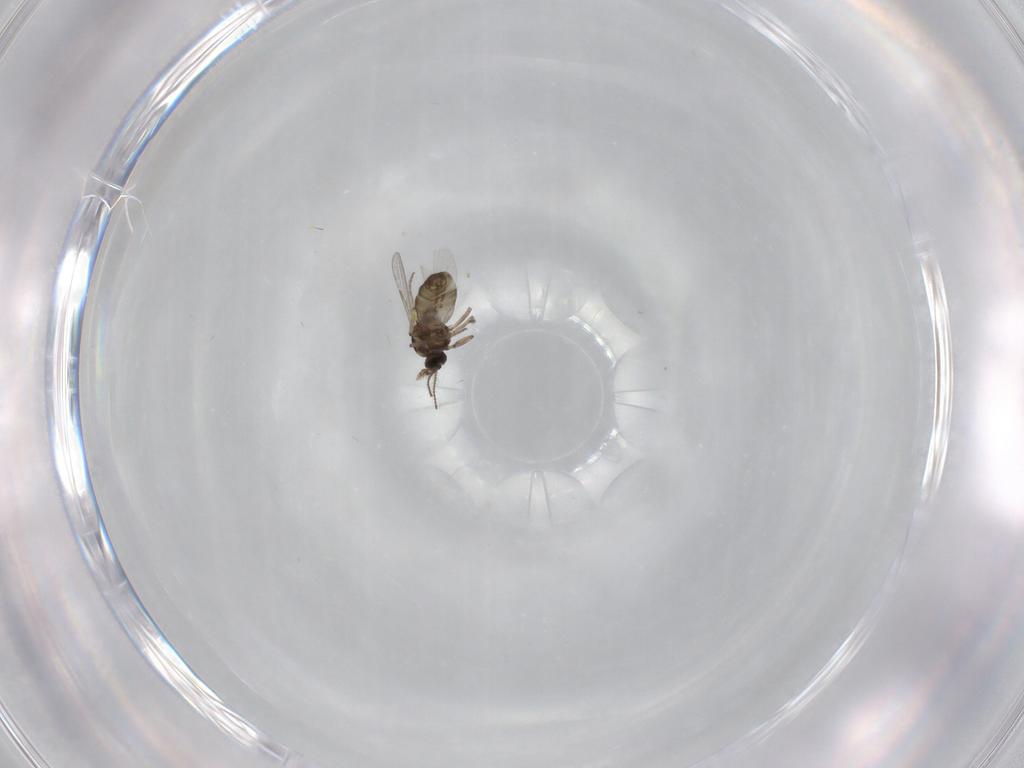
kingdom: Animalia
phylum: Arthropoda
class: Insecta
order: Diptera
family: Ceratopogonidae
